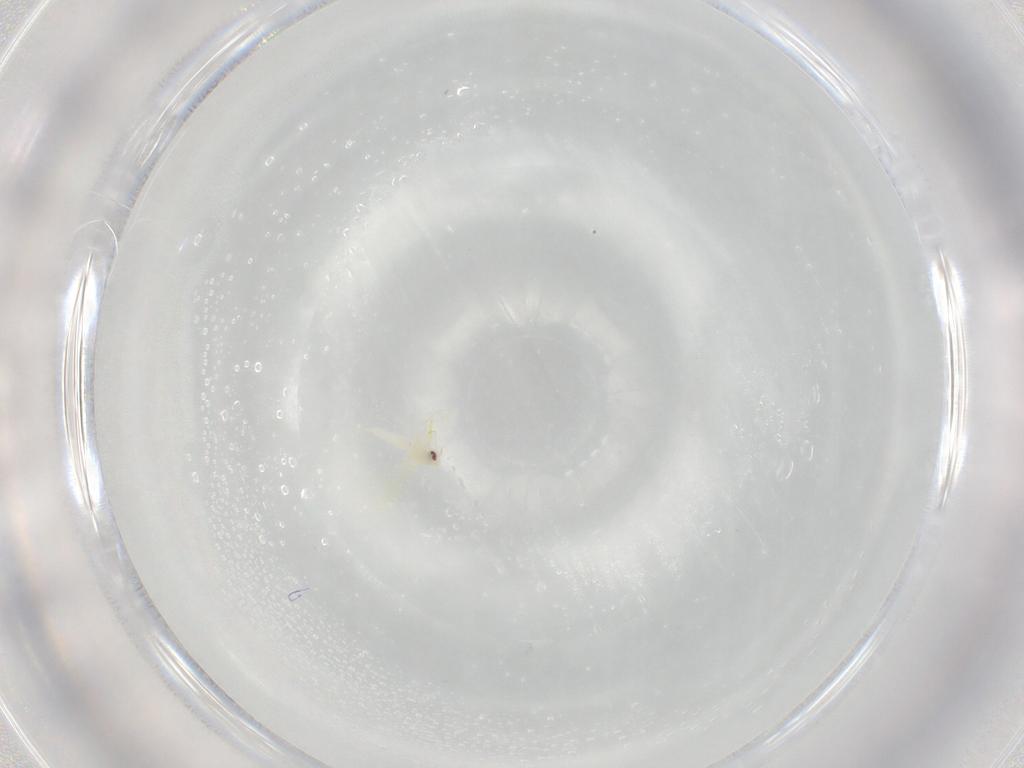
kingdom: Animalia
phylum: Arthropoda
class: Insecta
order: Hemiptera
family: Aleyrodidae
